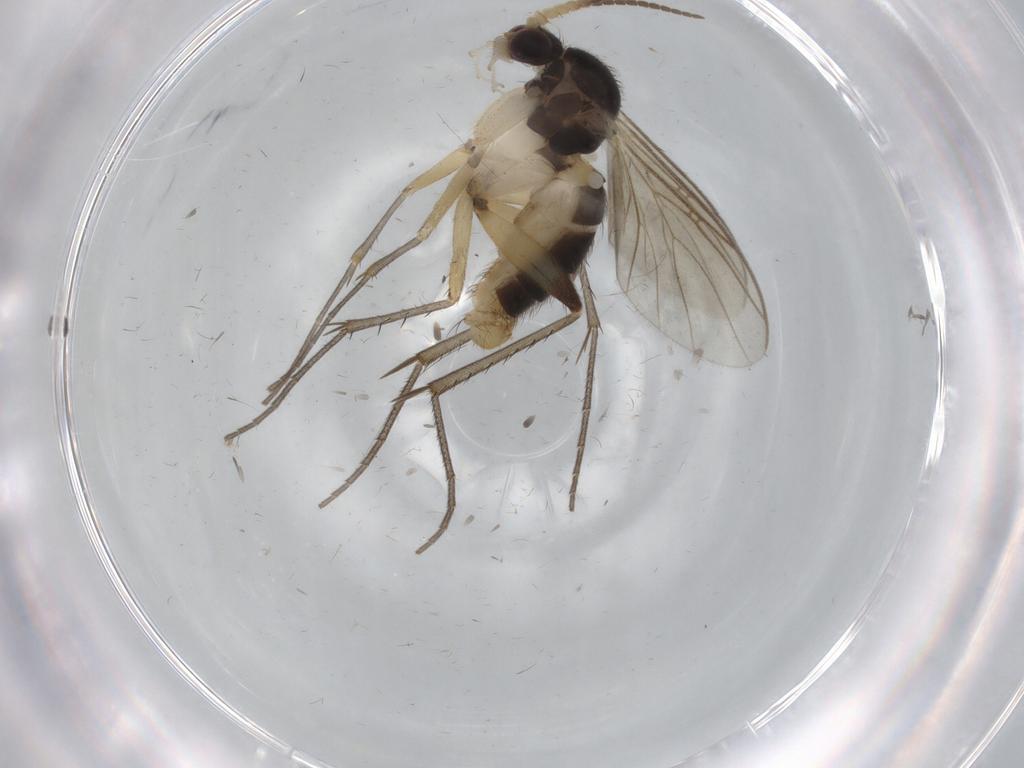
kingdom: Animalia
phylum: Arthropoda
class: Insecta
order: Diptera
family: Mycetophilidae
